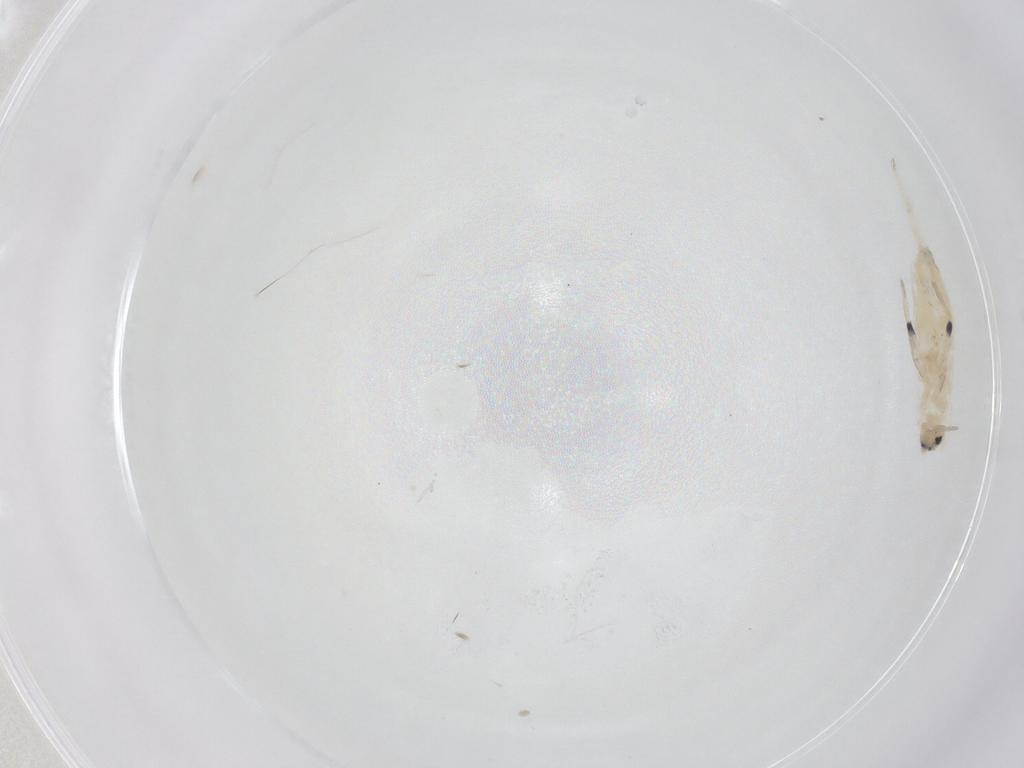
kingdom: Animalia
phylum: Arthropoda
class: Collembola
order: Entomobryomorpha
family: Entomobryidae
